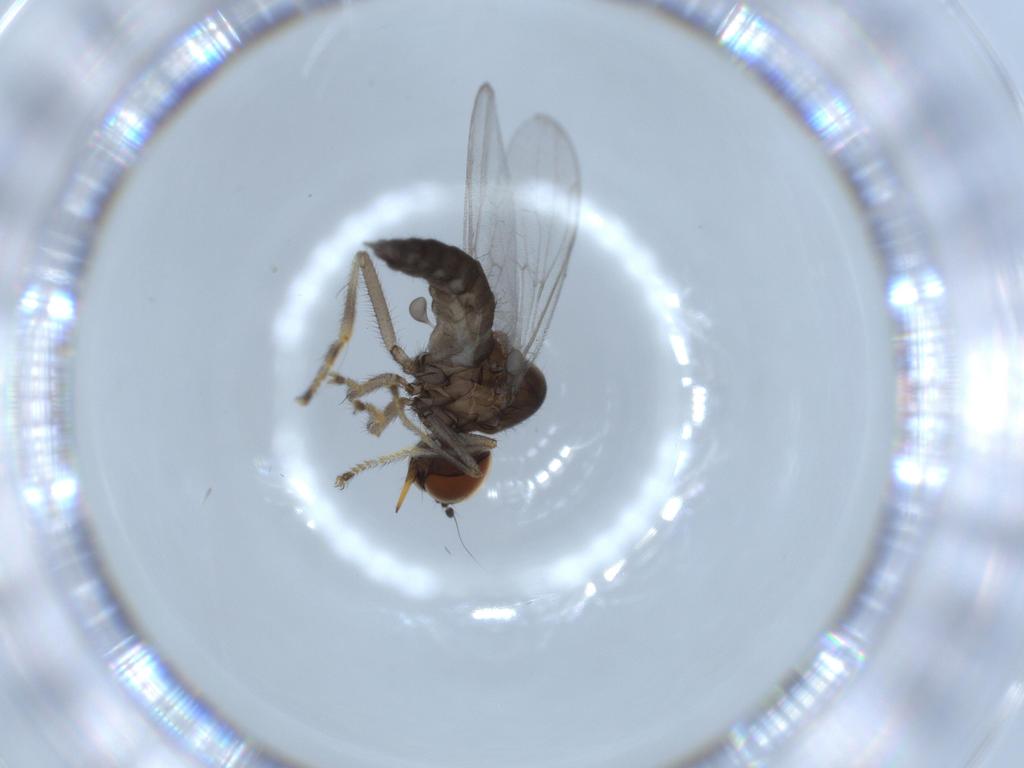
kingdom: Animalia
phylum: Arthropoda
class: Insecta
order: Diptera
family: Hybotidae
